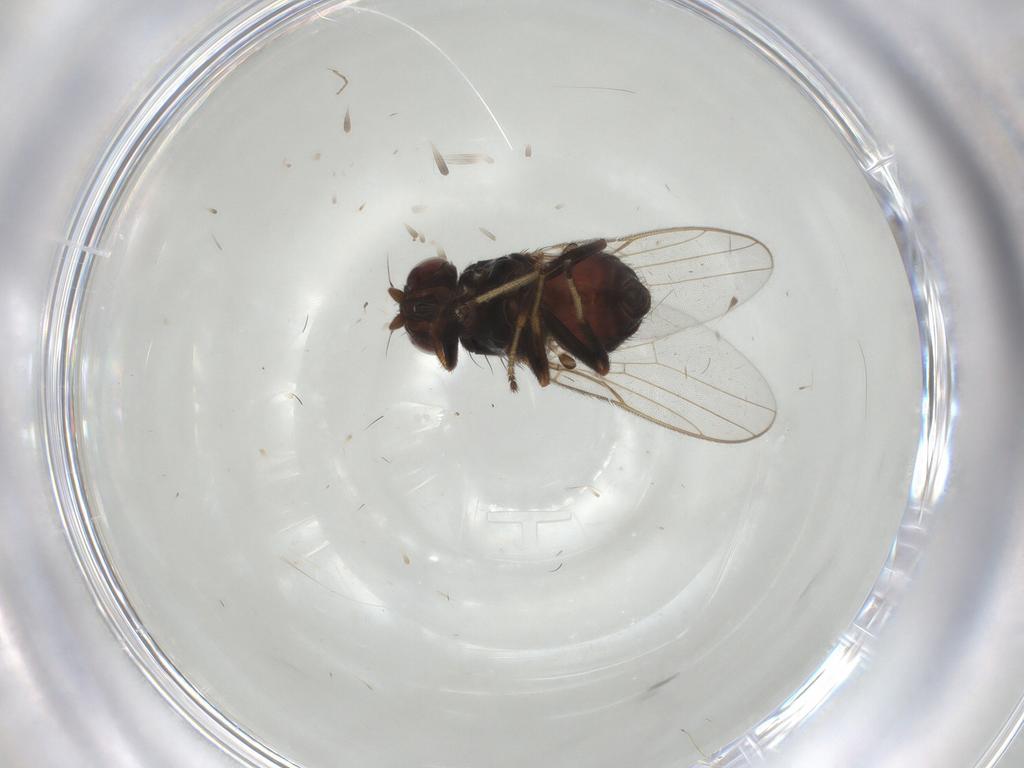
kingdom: Animalia
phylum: Arthropoda
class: Insecta
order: Diptera
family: Chloropidae
